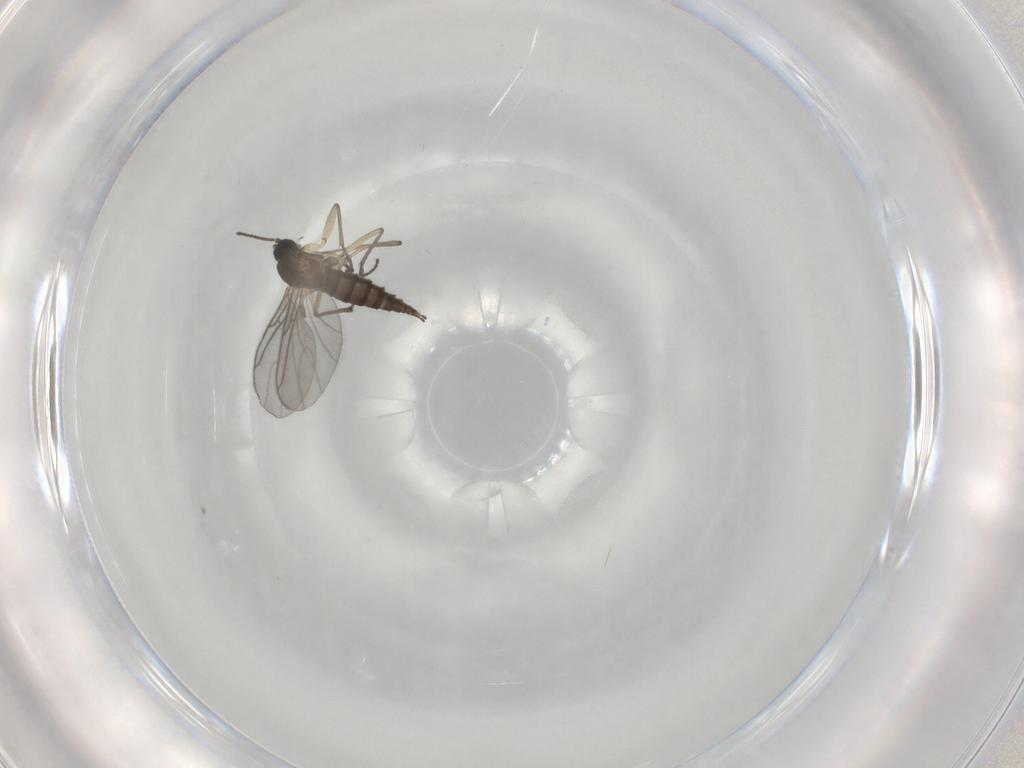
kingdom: Animalia
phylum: Arthropoda
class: Insecta
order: Diptera
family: Sciaridae
